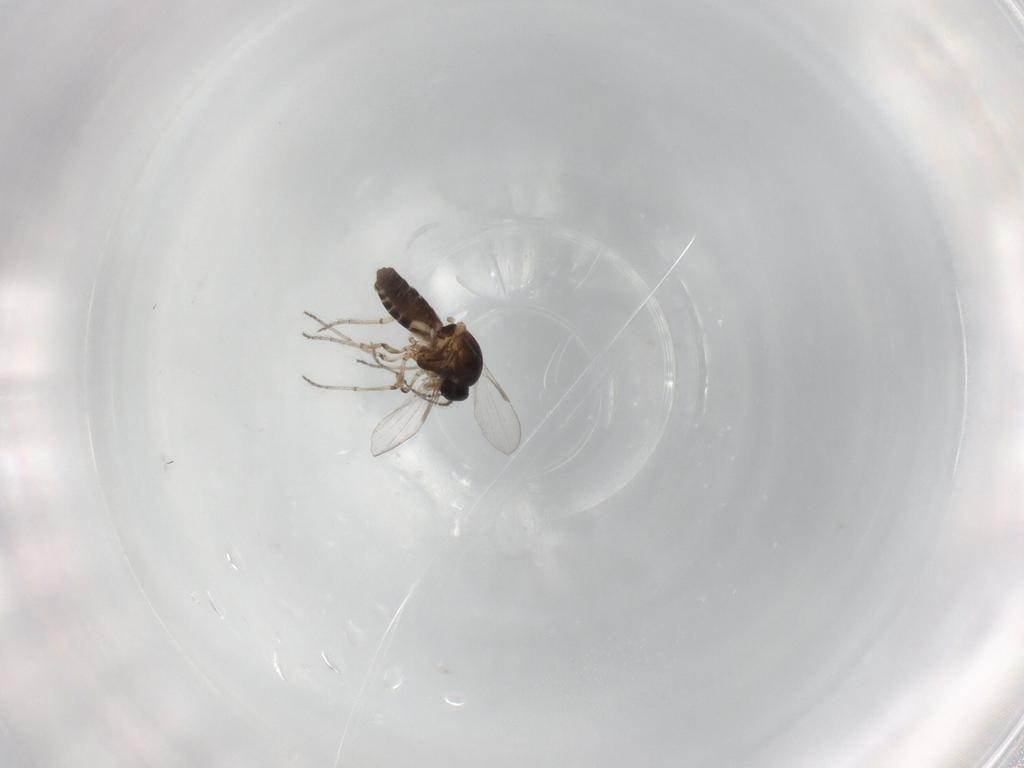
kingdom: Animalia
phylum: Arthropoda
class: Insecta
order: Diptera
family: Ceratopogonidae
